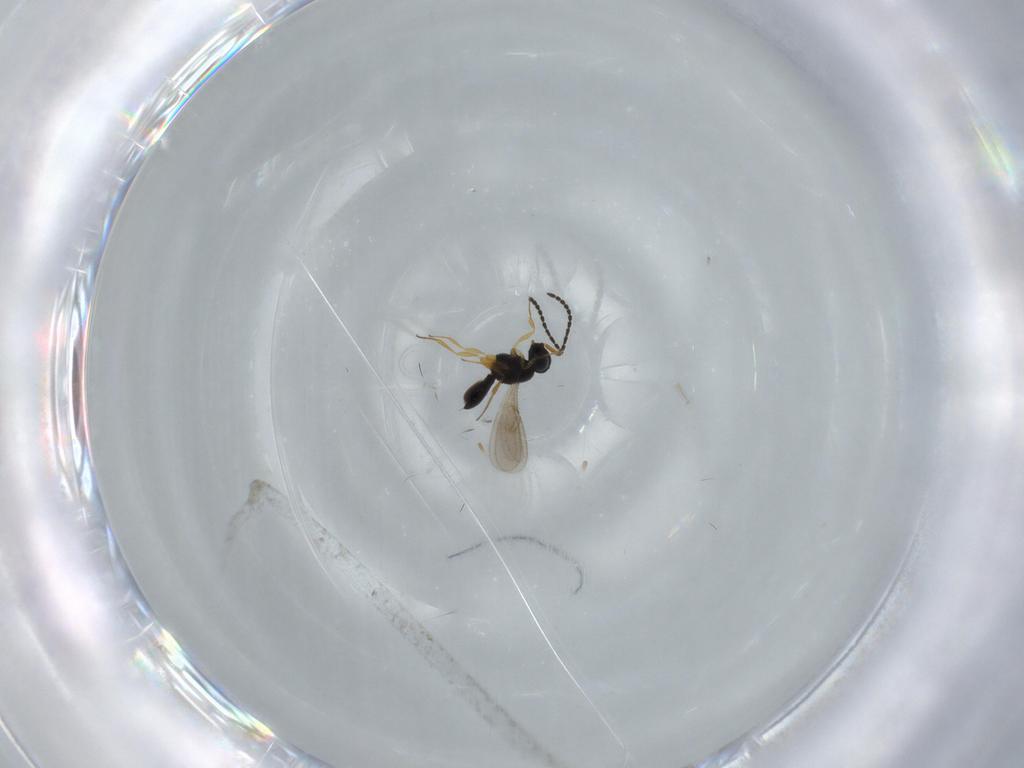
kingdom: Animalia
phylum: Arthropoda
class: Insecta
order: Hymenoptera
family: Scelionidae
